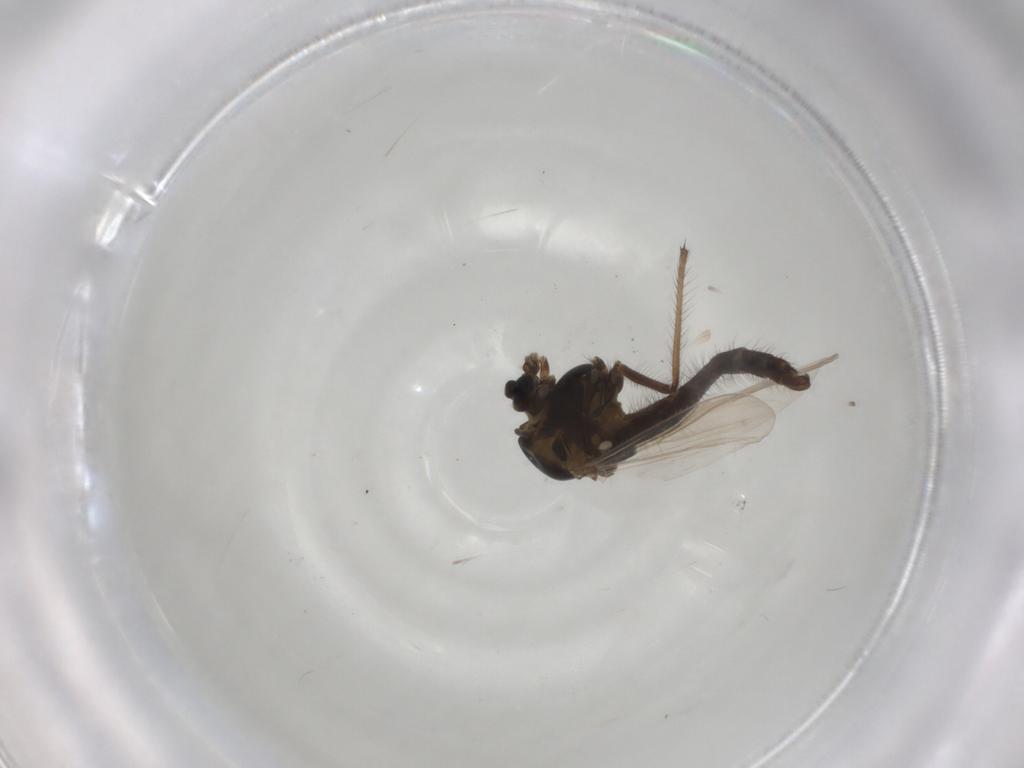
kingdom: Animalia
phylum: Arthropoda
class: Insecta
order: Diptera
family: Chironomidae
